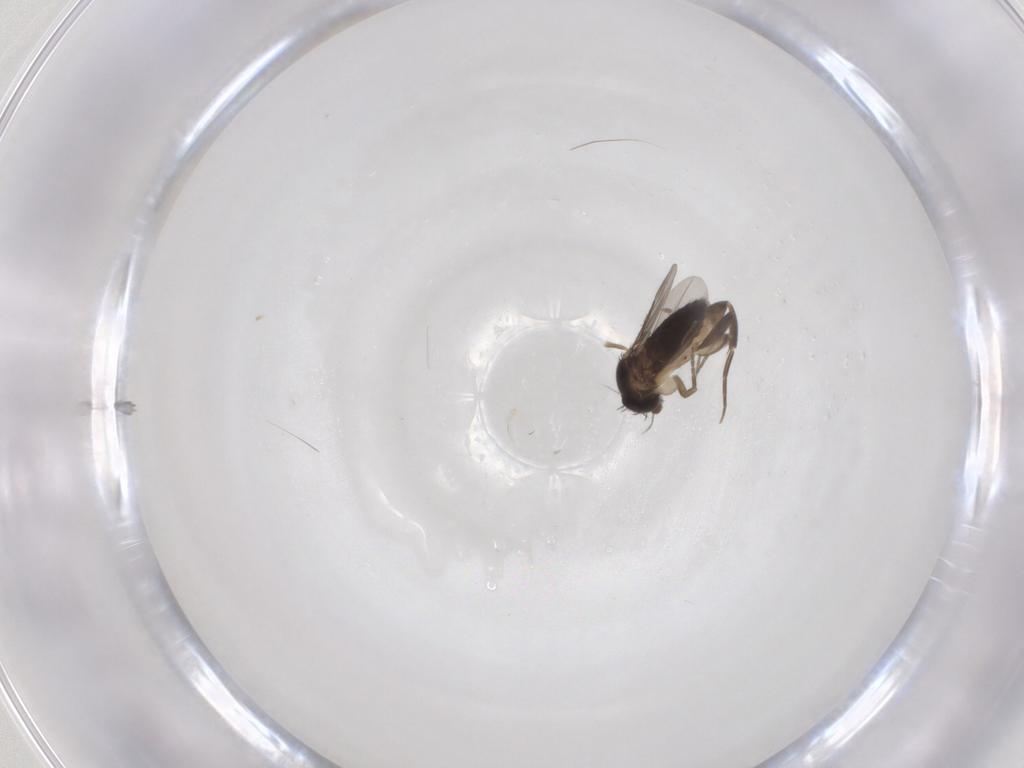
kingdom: Animalia
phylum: Arthropoda
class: Insecta
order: Diptera
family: Phoridae
